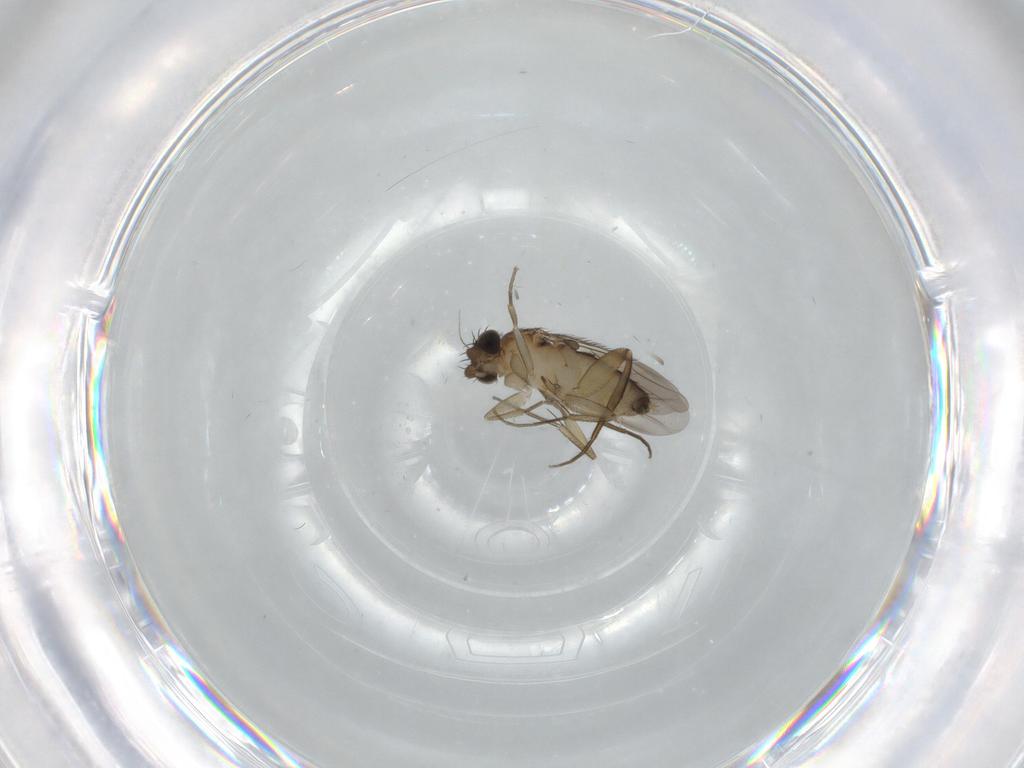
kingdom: Animalia
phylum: Arthropoda
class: Insecta
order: Diptera
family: Phoridae
